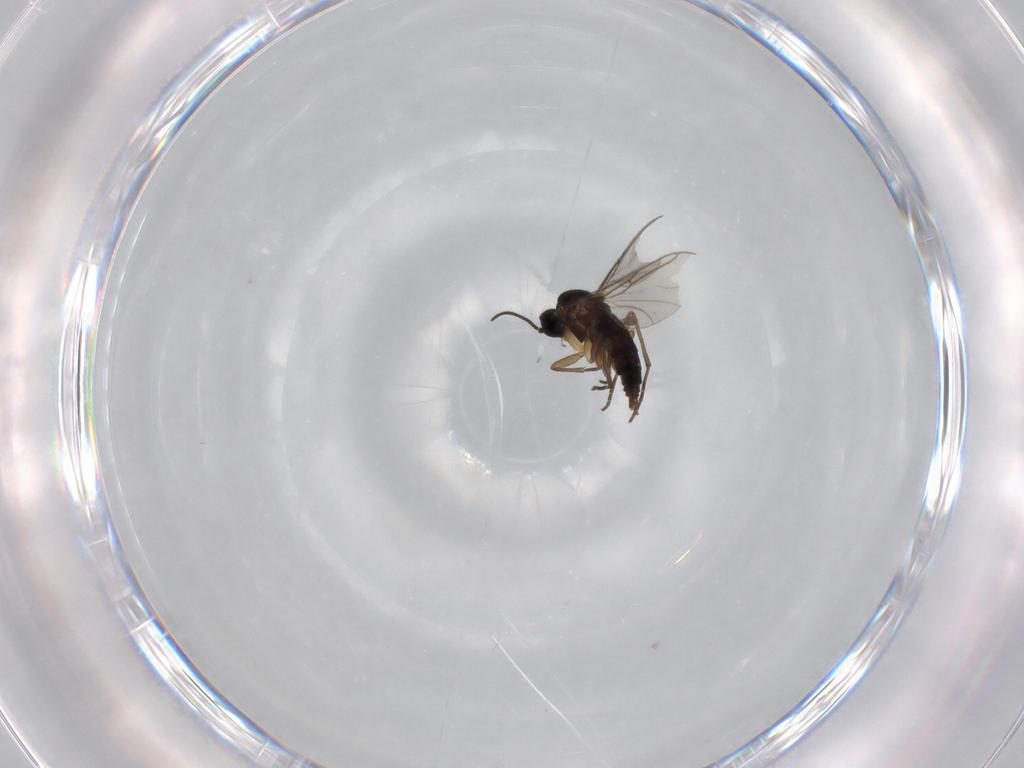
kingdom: Animalia
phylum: Arthropoda
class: Insecta
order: Diptera
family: Sciaridae
